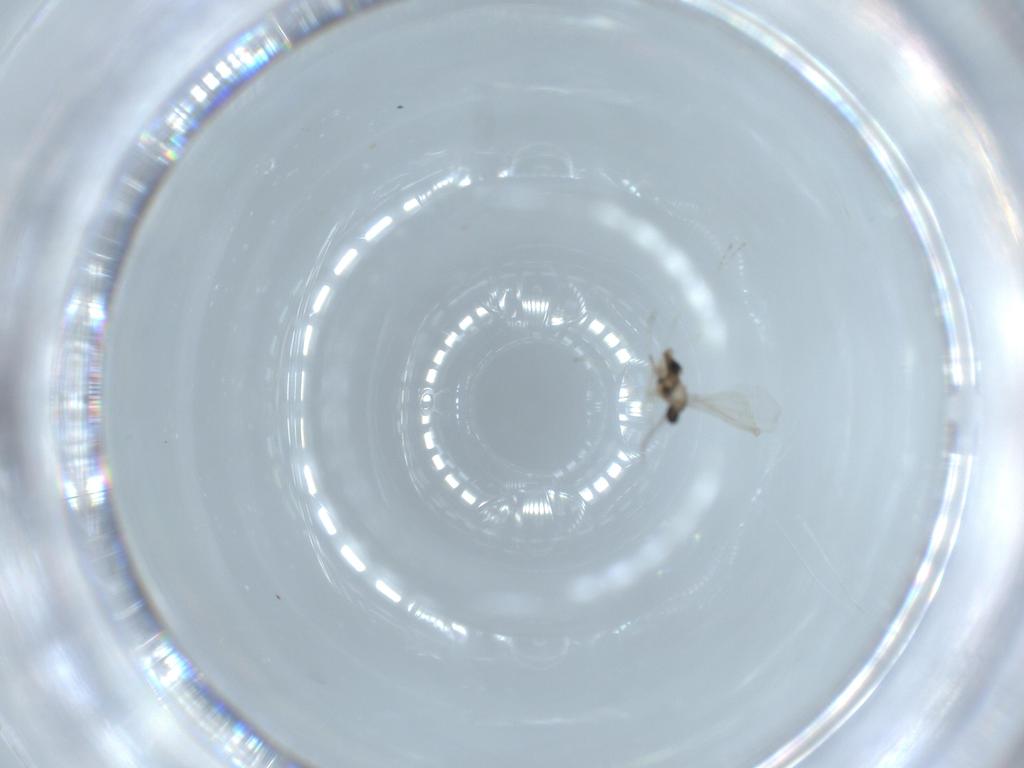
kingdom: Animalia
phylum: Arthropoda
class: Insecta
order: Diptera
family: Sciaridae
